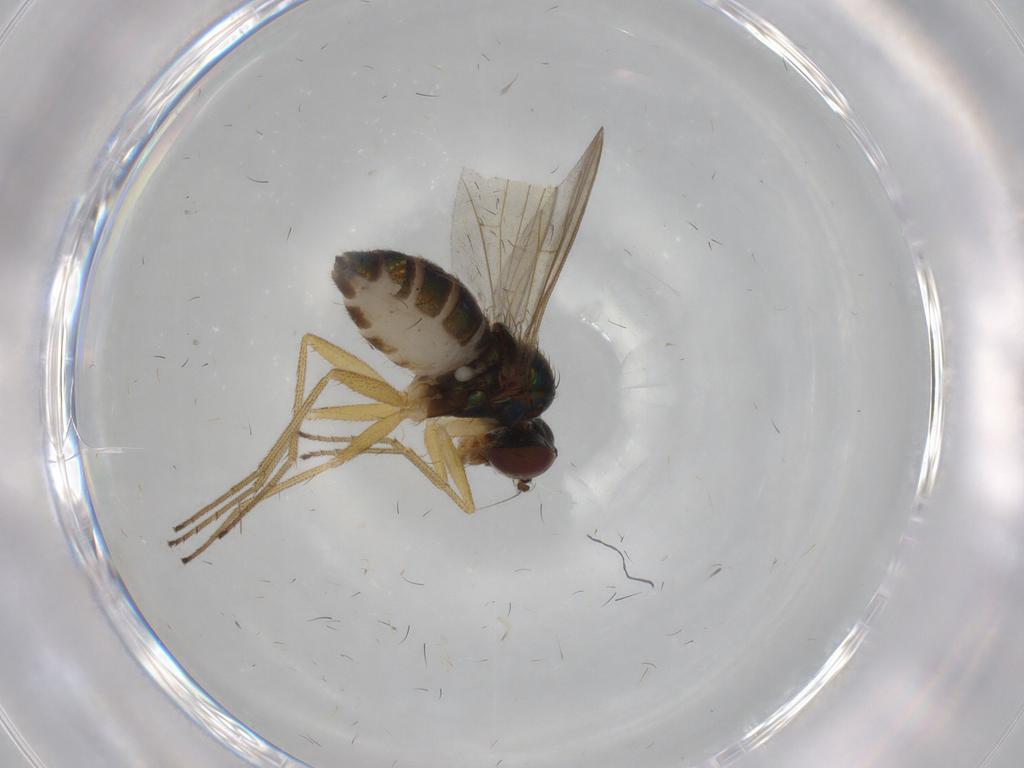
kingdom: Animalia
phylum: Arthropoda
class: Insecta
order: Diptera
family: Dolichopodidae
